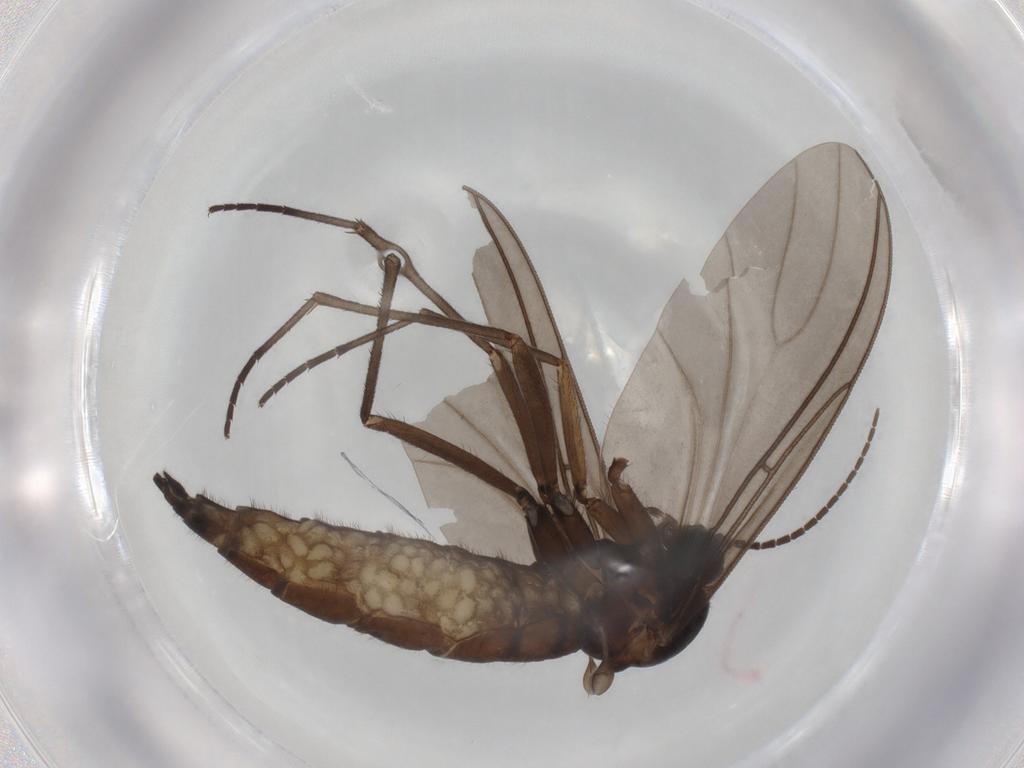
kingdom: Animalia
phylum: Arthropoda
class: Insecta
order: Diptera
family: Sciaridae
